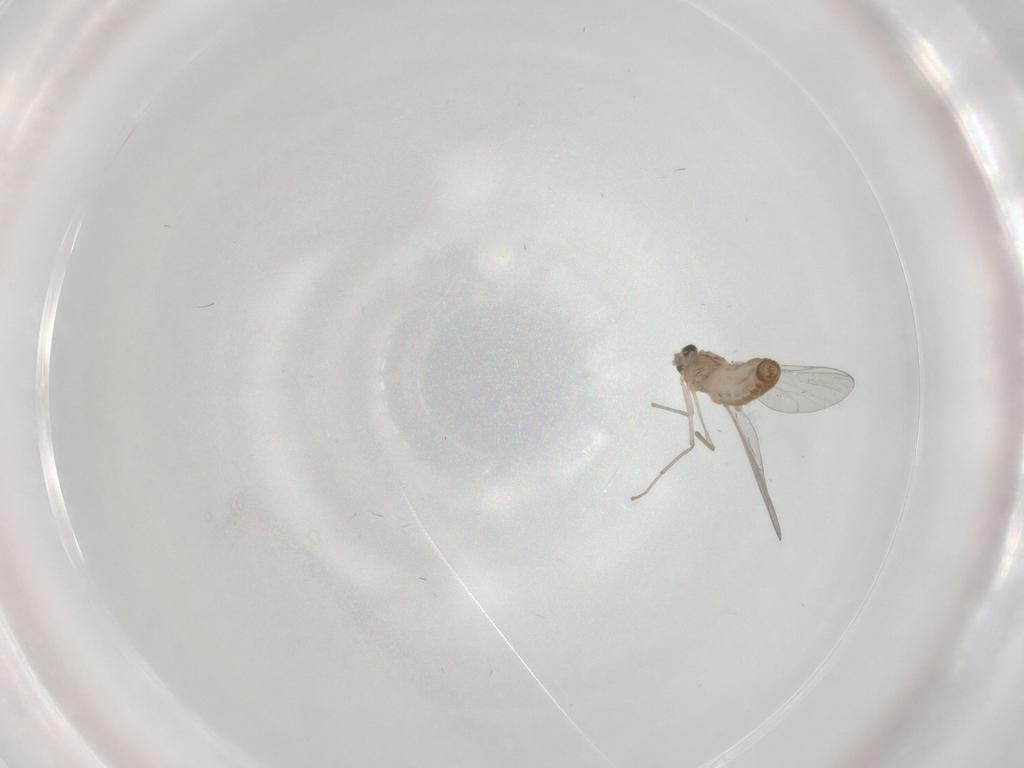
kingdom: Animalia
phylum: Arthropoda
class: Insecta
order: Diptera
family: Chironomidae
